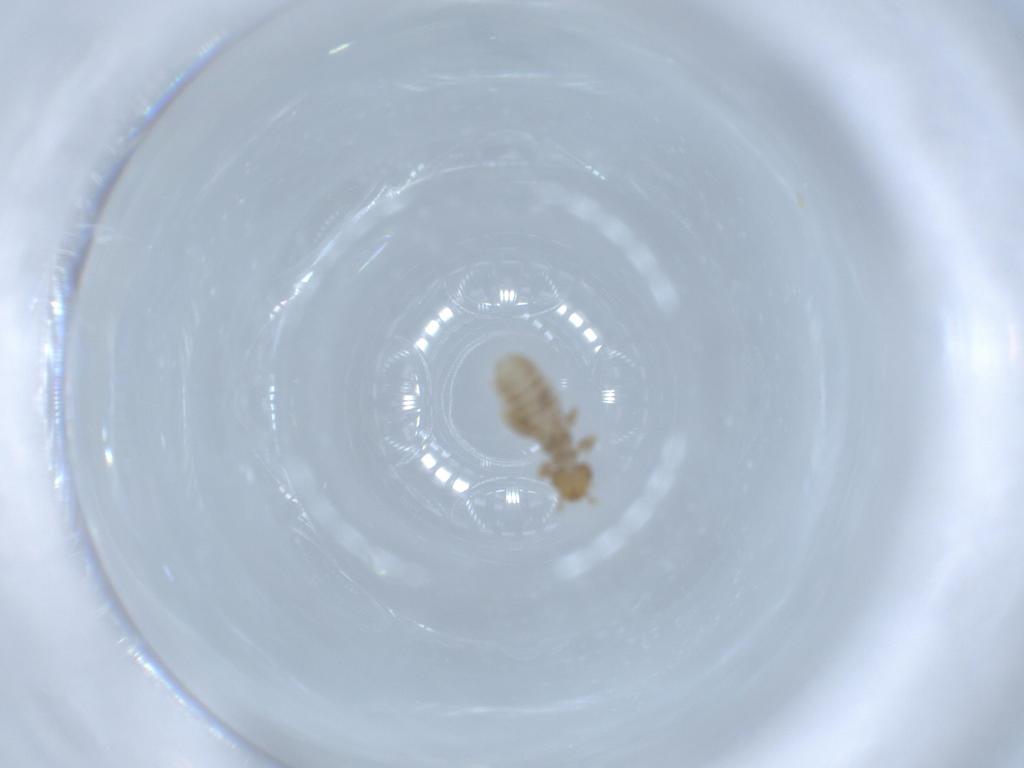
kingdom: Animalia
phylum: Arthropoda
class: Insecta
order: Psocodea
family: Liposcelididae
